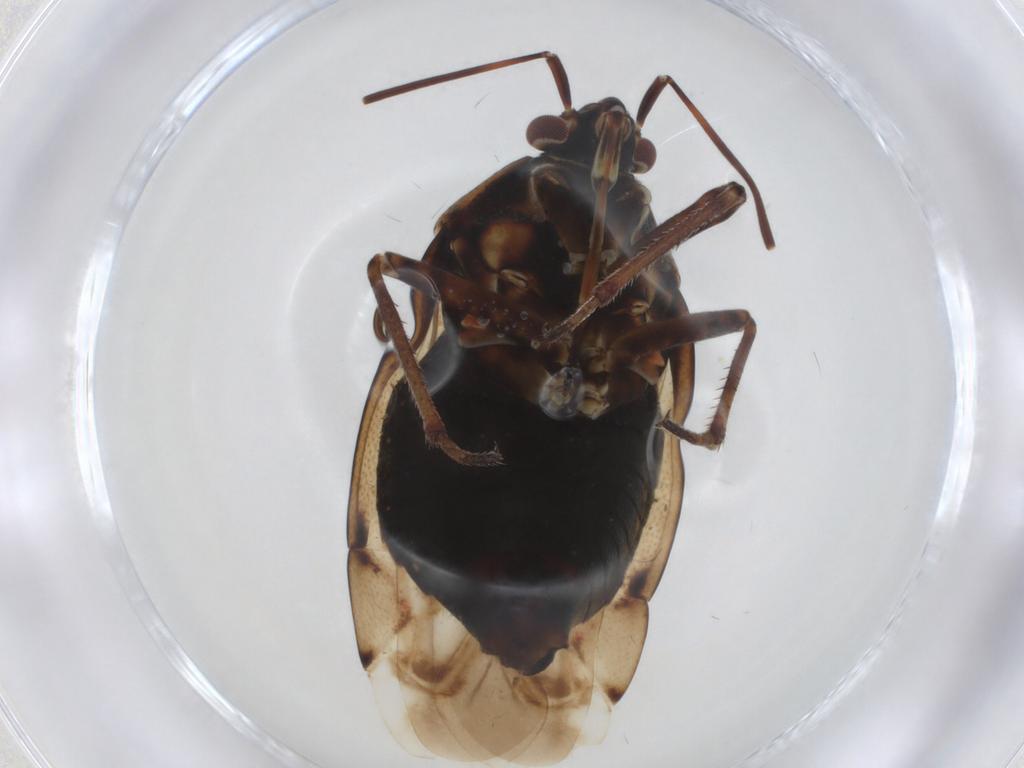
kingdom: Animalia
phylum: Arthropoda
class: Insecta
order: Hemiptera
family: Miridae
